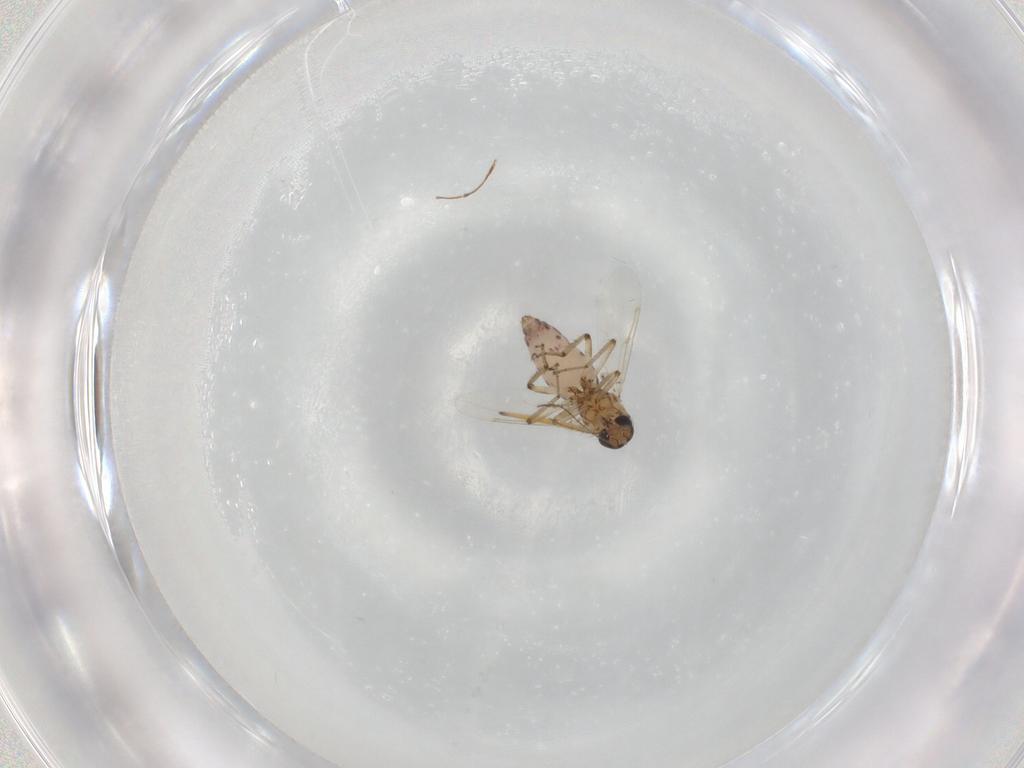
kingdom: Animalia
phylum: Arthropoda
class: Insecta
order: Diptera
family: Ceratopogonidae
